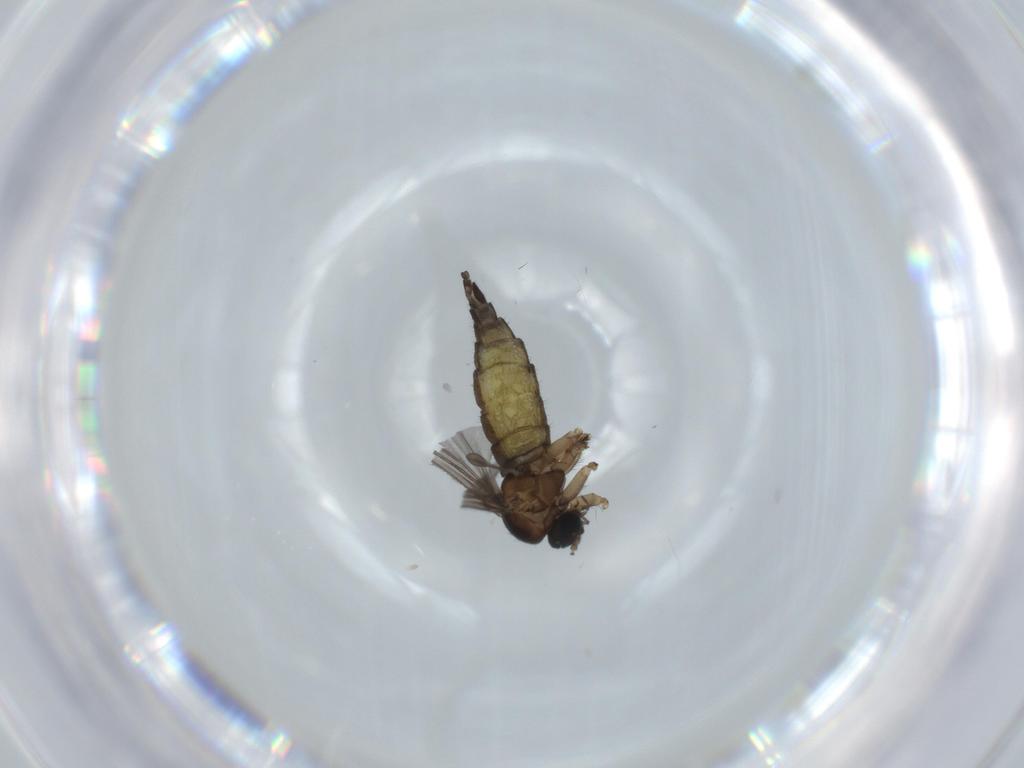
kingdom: Animalia
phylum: Arthropoda
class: Insecta
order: Diptera
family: Sciaridae
